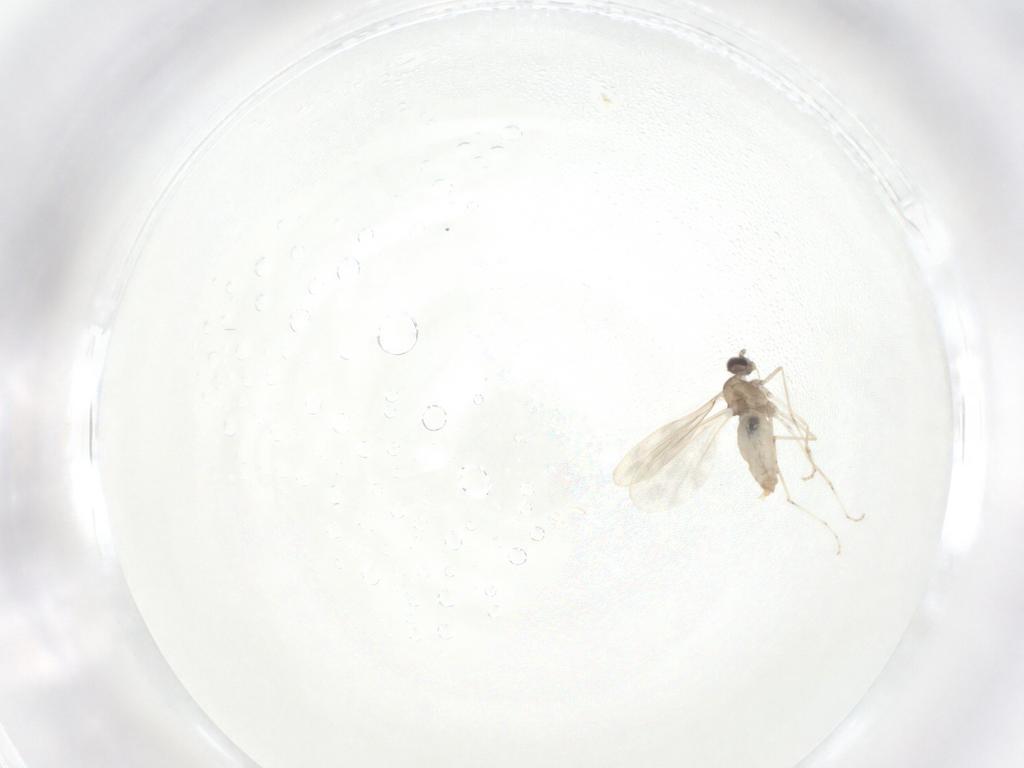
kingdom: Animalia
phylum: Arthropoda
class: Insecta
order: Diptera
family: Cecidomyiidae
